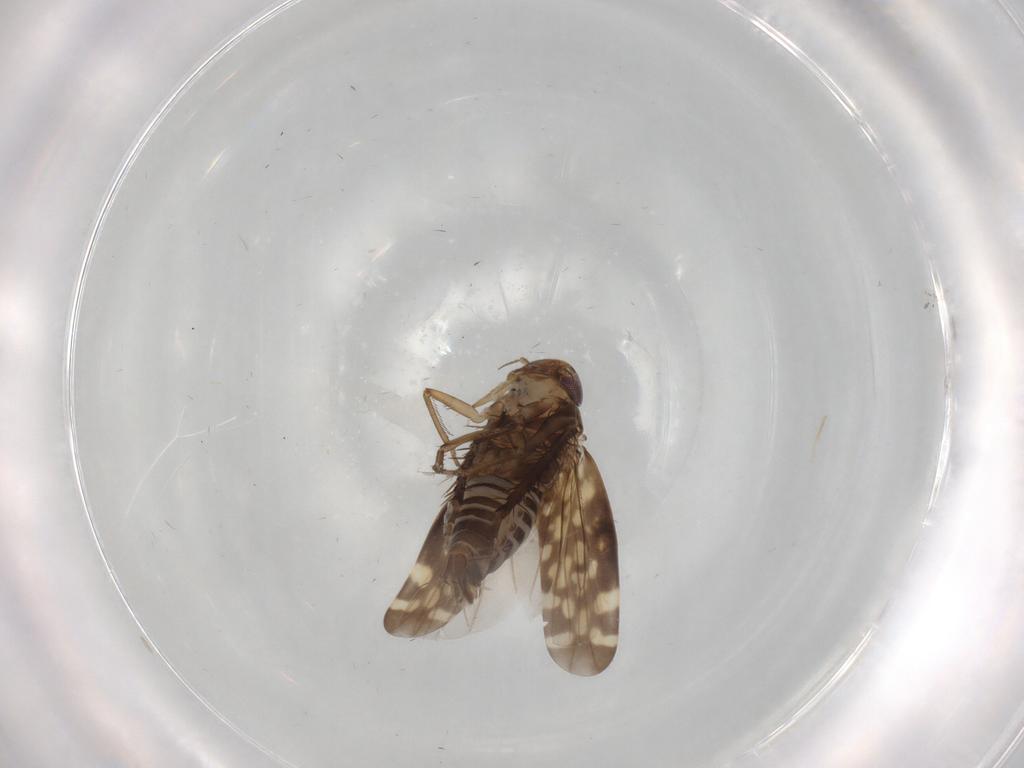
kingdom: Animalia
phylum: Arthropoda
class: Insecta
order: Hemiptera
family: Cicadellidae
